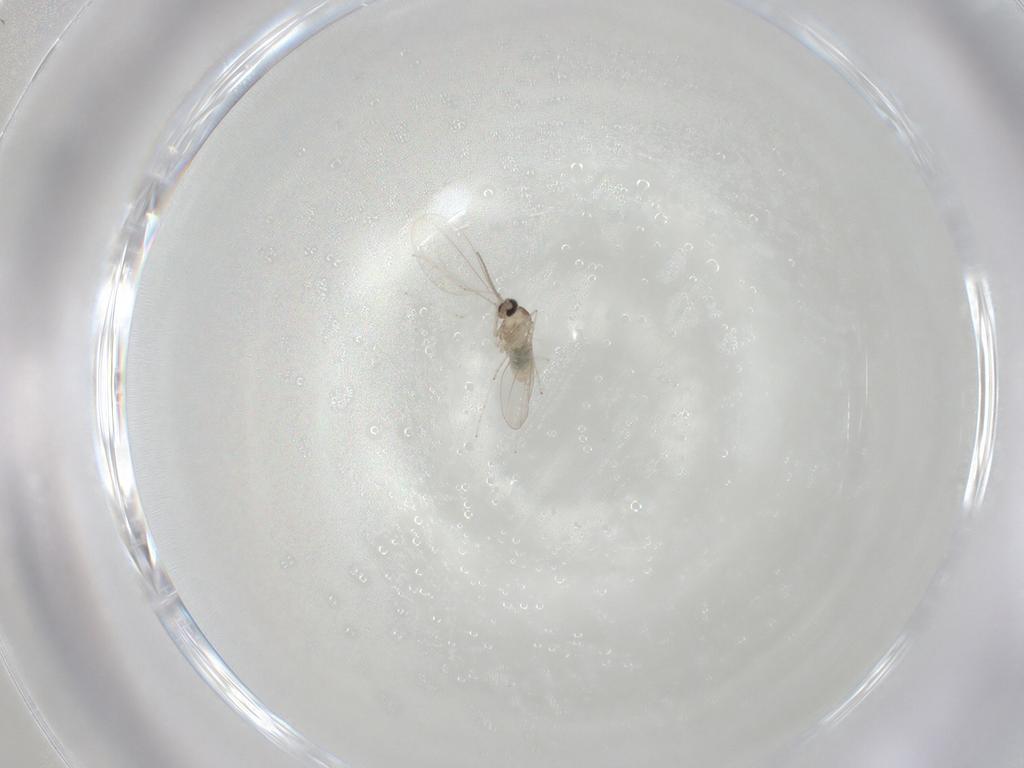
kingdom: Animalia
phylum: Arthropoda
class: Insecta
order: Diptera
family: Cecidomyiidae
